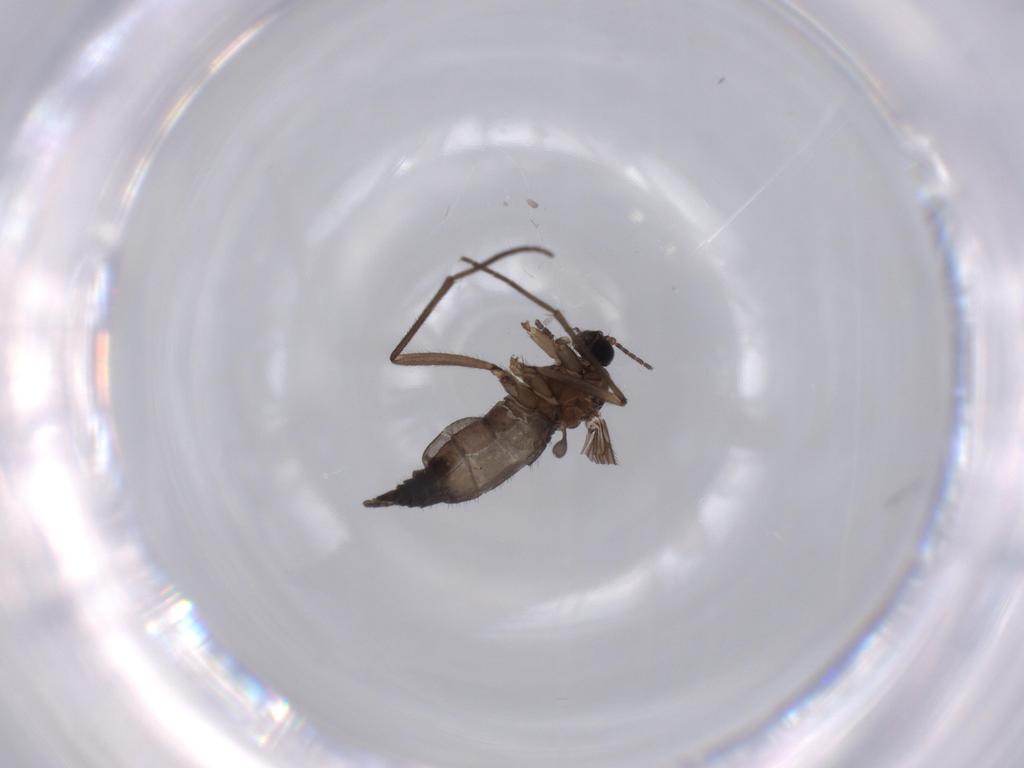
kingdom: Animalia
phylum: Arthropoda
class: Insecta
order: Diptera
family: Sciaridae
